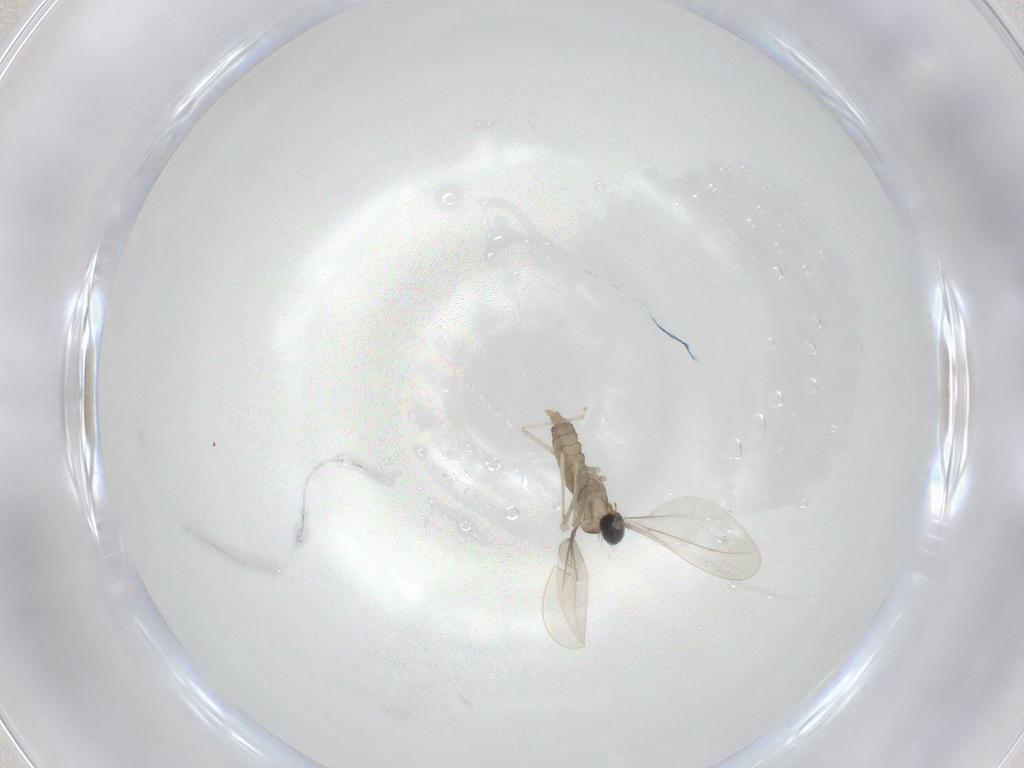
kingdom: Animalia
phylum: Arthropoda
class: Insecta
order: Diptera
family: Cecidomyiidae
